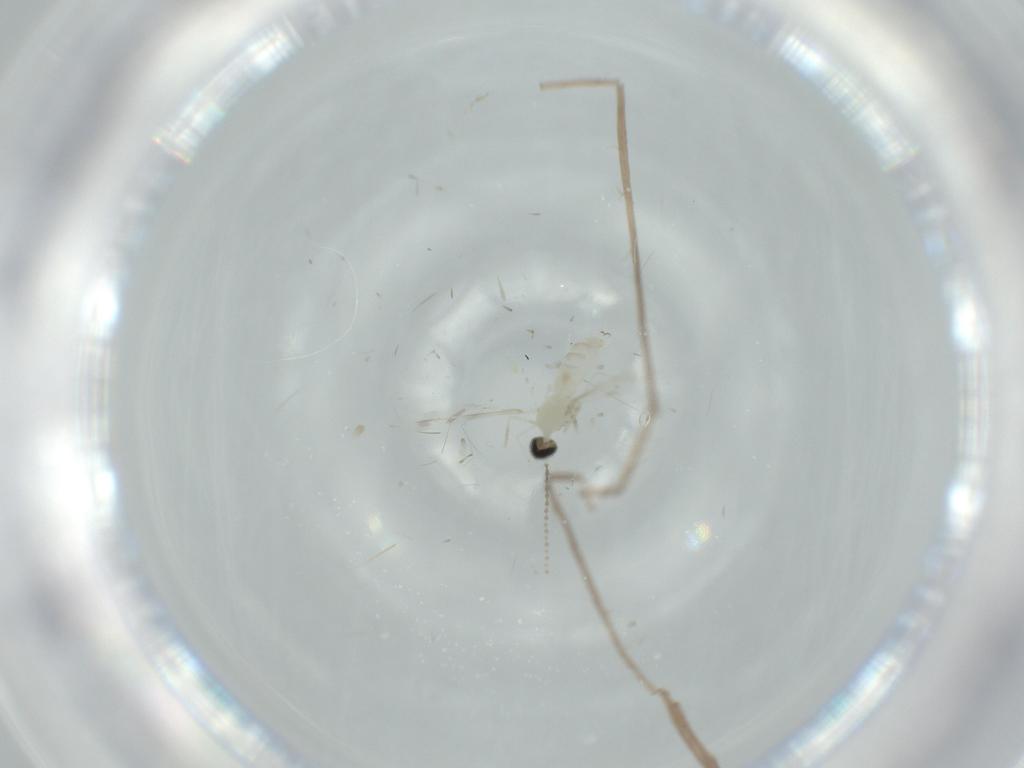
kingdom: Animalia
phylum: Arthropoda
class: Insecta
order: Diptera
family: Cecidomyiidae
